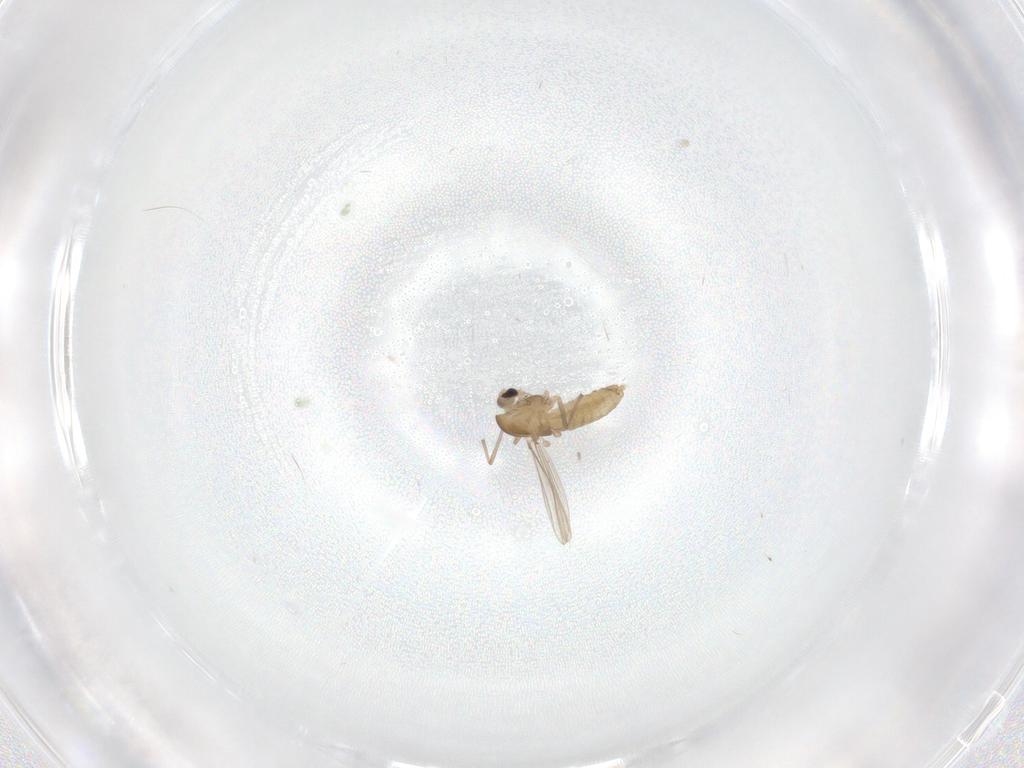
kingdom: Animalia
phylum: Arthropoda
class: Insecta
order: Diptera
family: Chironomidae
